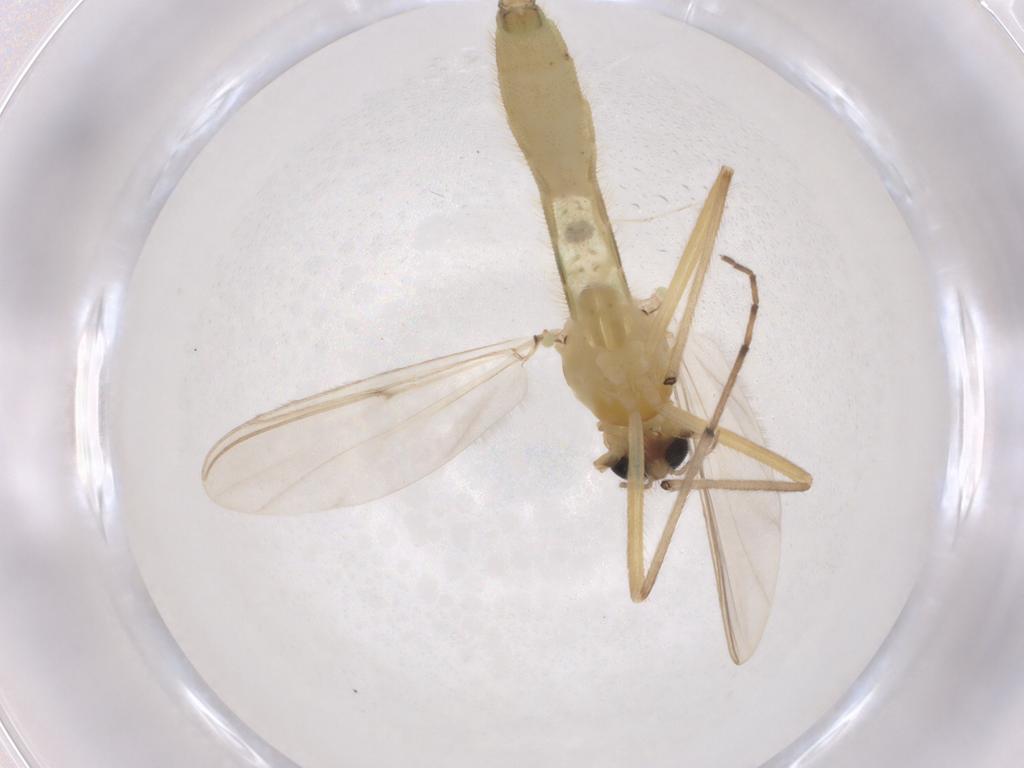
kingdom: Animalia
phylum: Arthropoda
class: Insecta
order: Diptera
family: Chironomidae
